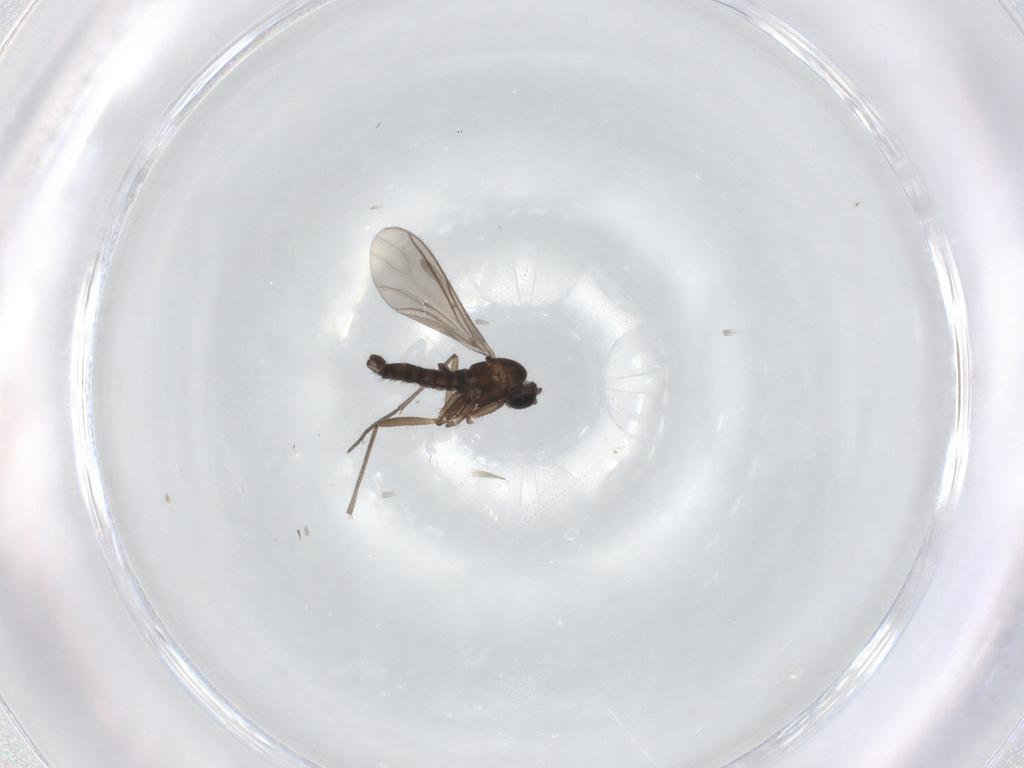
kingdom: Animalia
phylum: Arthropoda
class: Insecta
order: Diptera
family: Sciaridae
